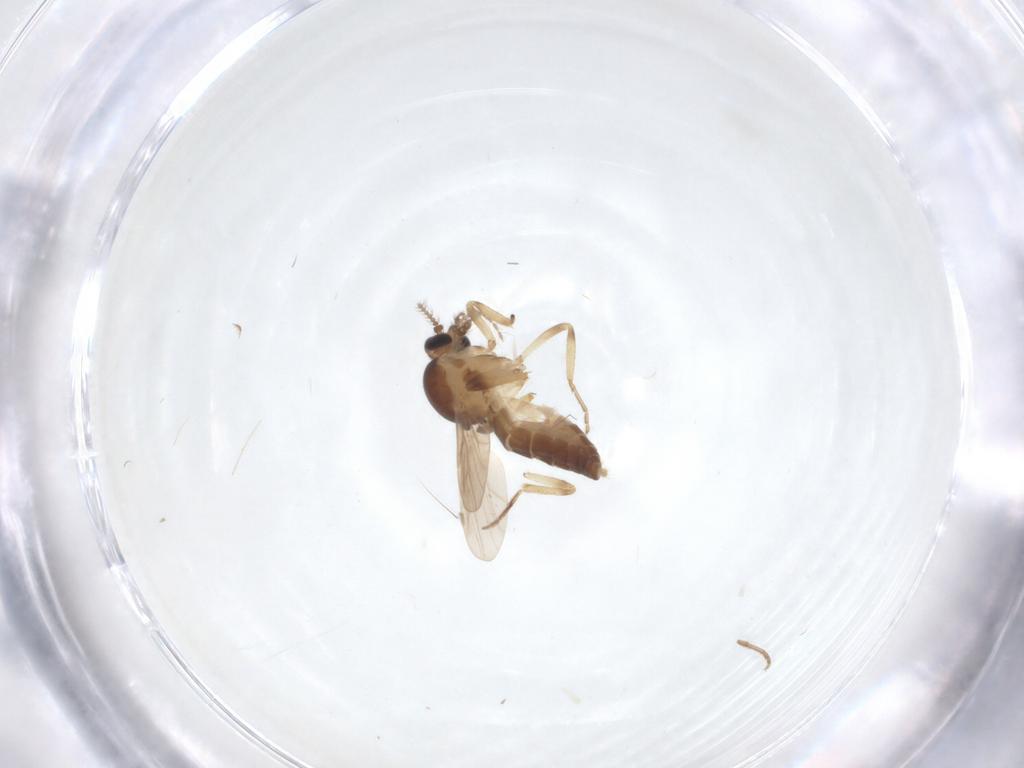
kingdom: Animalia
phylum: Arthropoda
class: Insecta
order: Diptera
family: Ceratopogonidae
